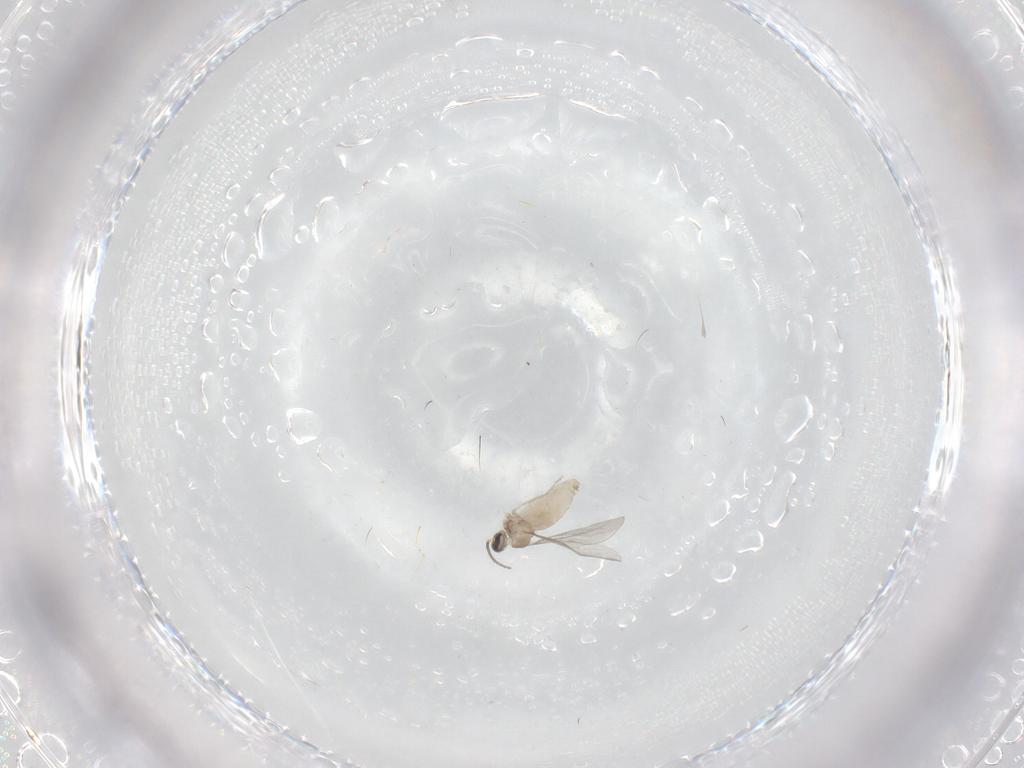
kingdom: Animalia
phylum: Arthropoda
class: Insecta
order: Diptera
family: Cecidomyiidae
